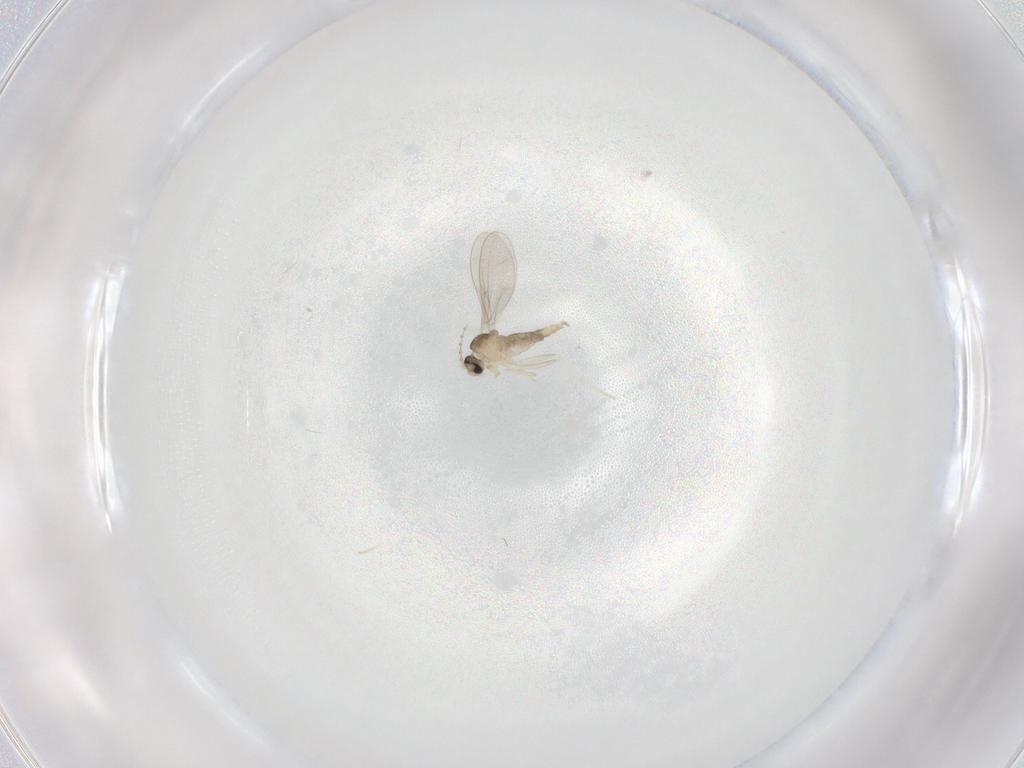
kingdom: Animalia
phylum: Arthropoda
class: Insecta
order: Diptera
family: Cecidomyiidae
